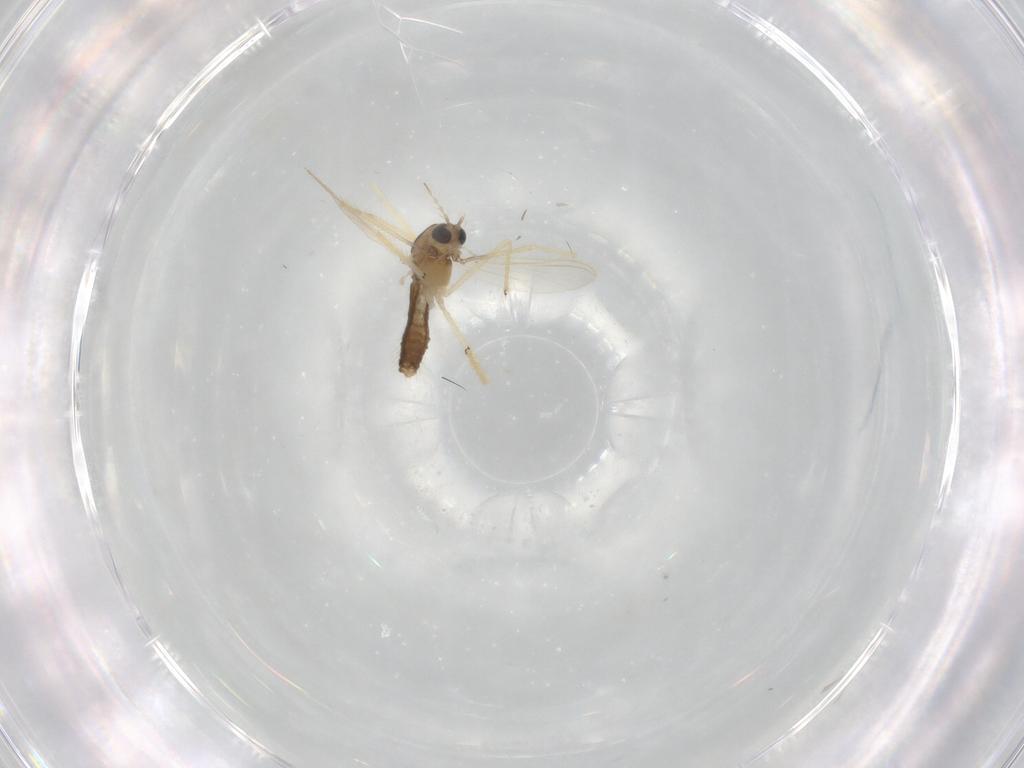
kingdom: Animalia
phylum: Arthropoda
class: Insecta
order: Diptera
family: Chironomidae
